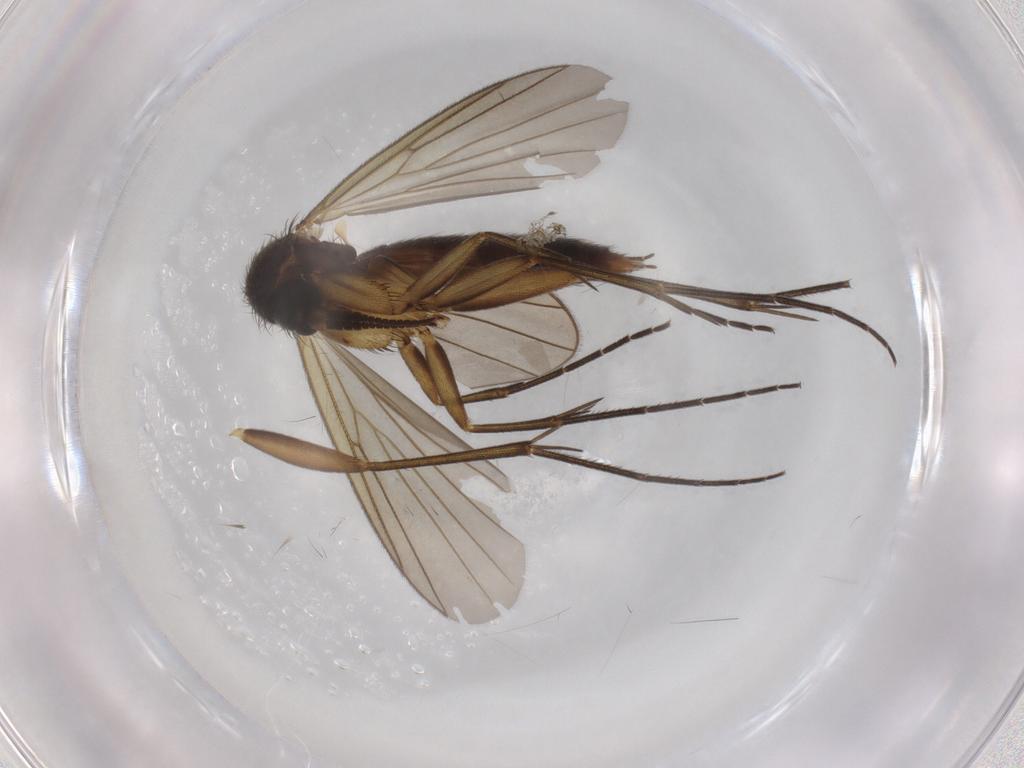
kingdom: Animalia
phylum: Arthropoda
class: Insecta
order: Diptera
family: Mycetophilidae
